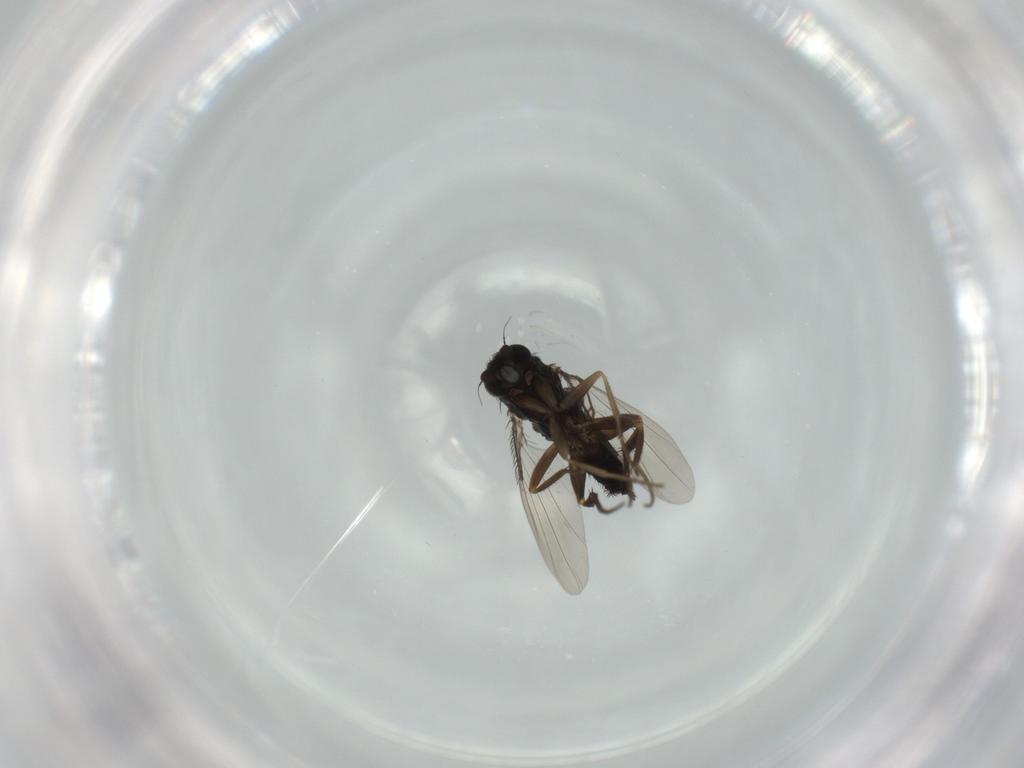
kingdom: Animalia
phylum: Arthropoda
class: Insecta
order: Diptera
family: Phoridae
